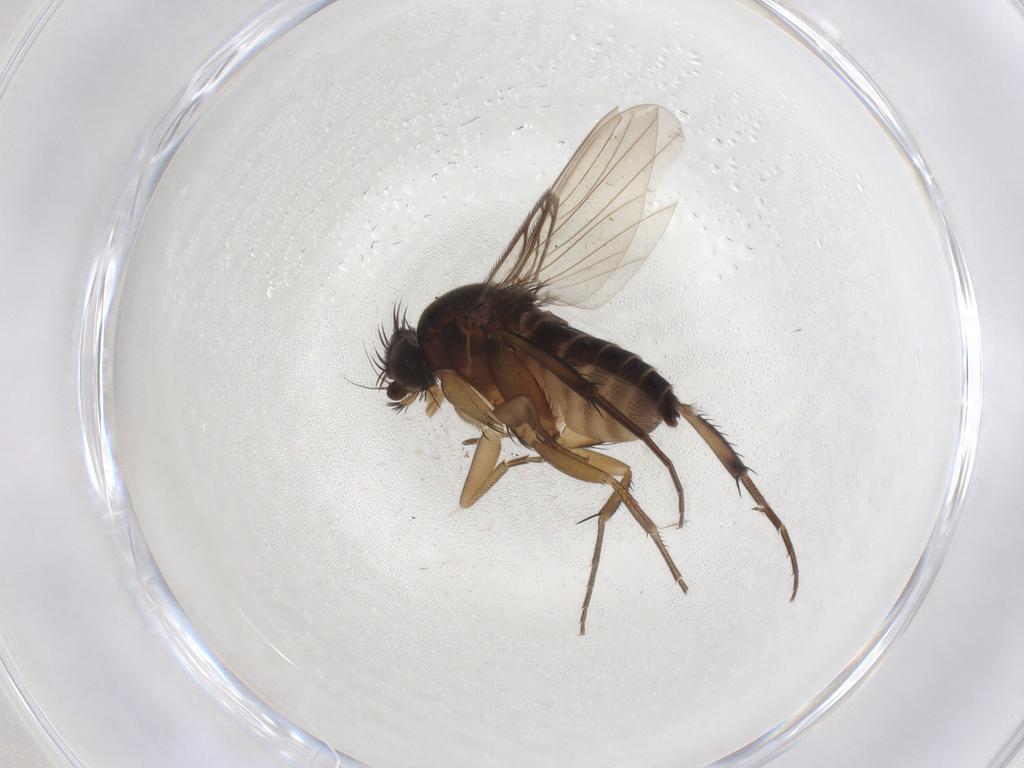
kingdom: Animalia
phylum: Arthropoda
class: Insecta
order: Diptera
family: Phoridae
